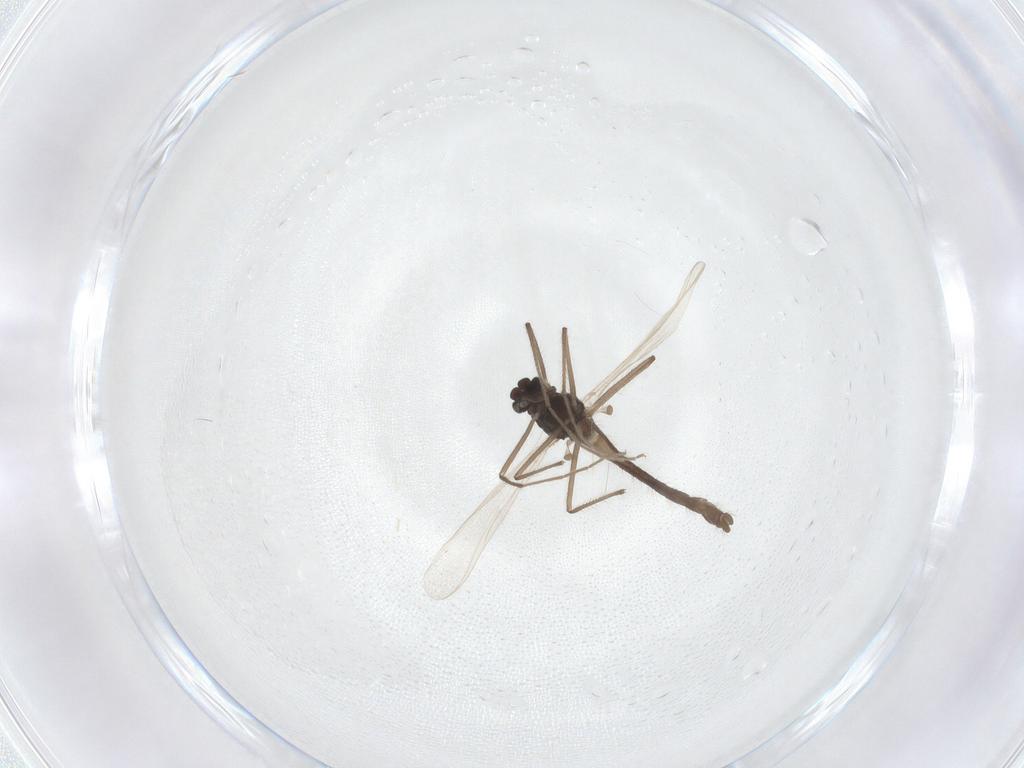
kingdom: Animalia
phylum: Arthropoda
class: Insecta
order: Diptera
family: Chironomidae
